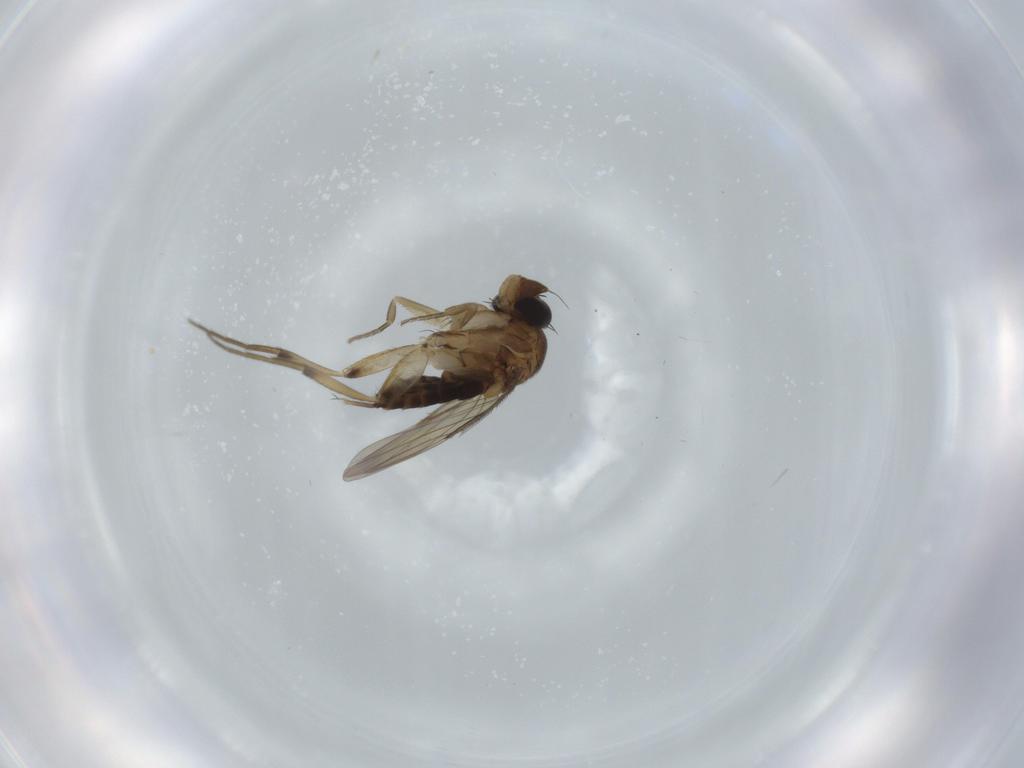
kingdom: Animalia
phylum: Arthropoda
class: Insecta
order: Diptera
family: Phoridae
